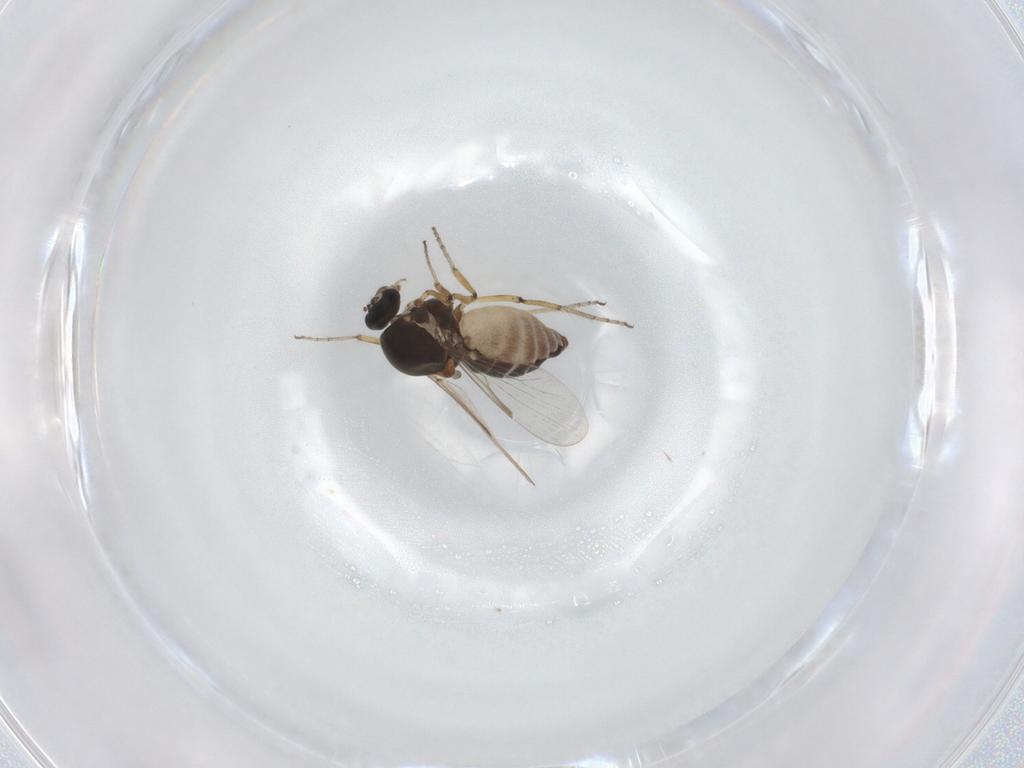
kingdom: Animalia
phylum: Arthropoda
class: Insecta
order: Diptera
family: Ceratopogonidae
